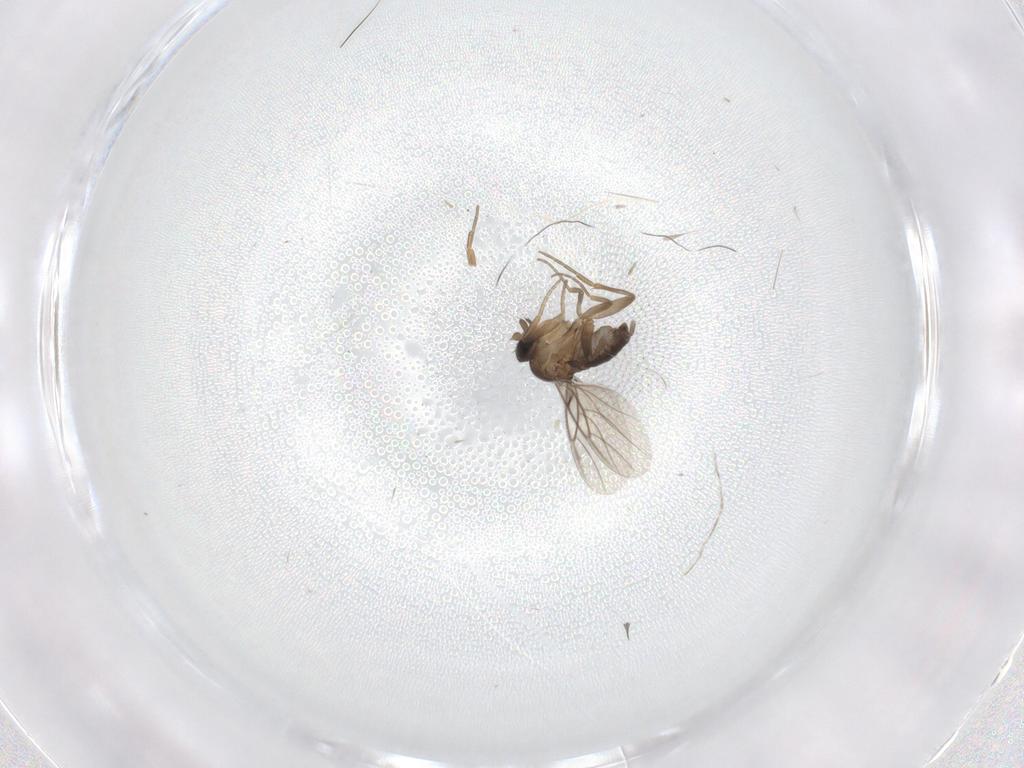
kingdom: Animalia
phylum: Arthropoda
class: Insecta
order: Diptera
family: Phoridae
